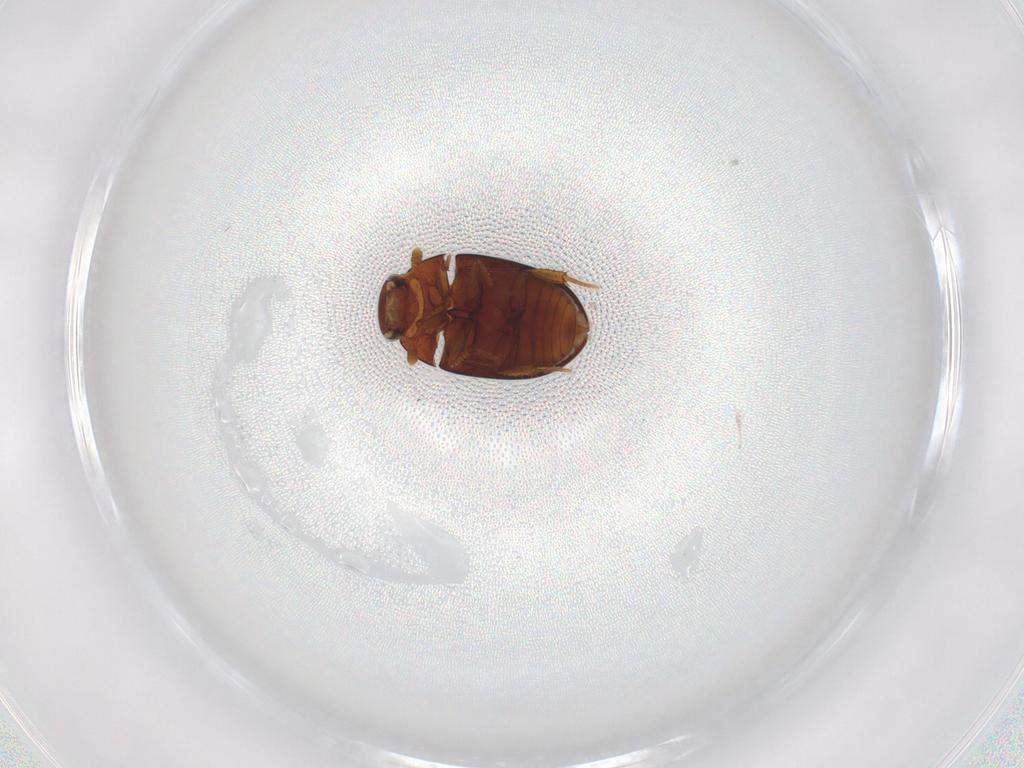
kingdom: Animalia
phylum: Arthropoda
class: Insecta
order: Coleoptera
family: Hydrophilidae
